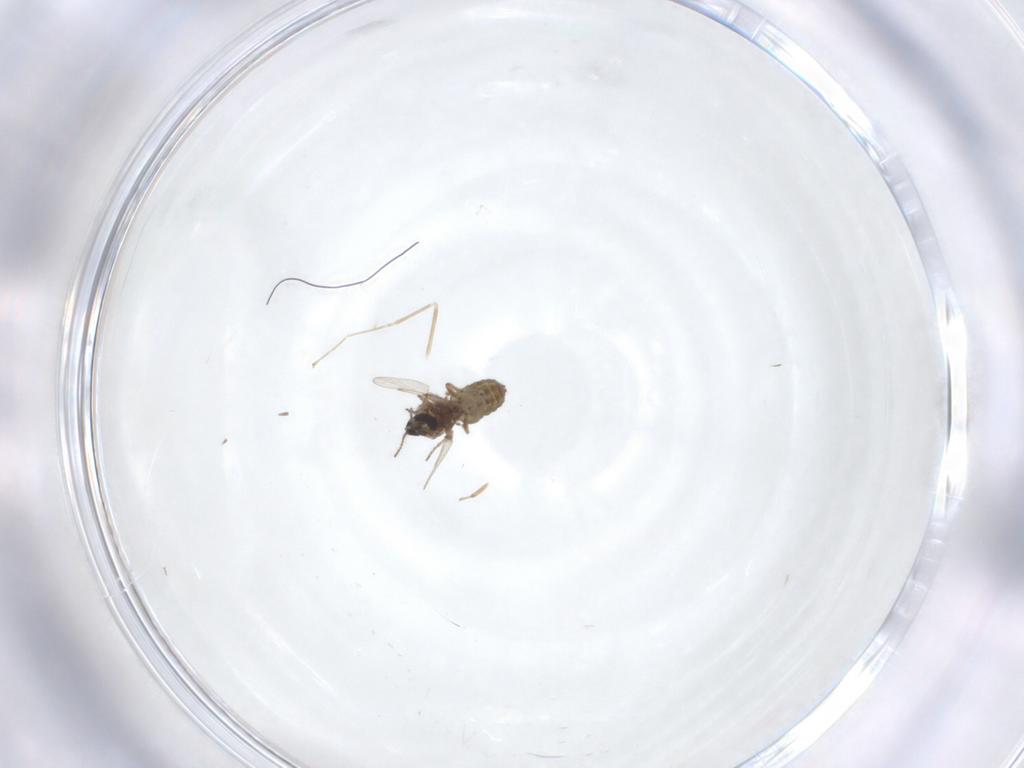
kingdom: Animalia
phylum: Arthropoda
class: Insecta
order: Diptera
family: Ceratopogonidae
